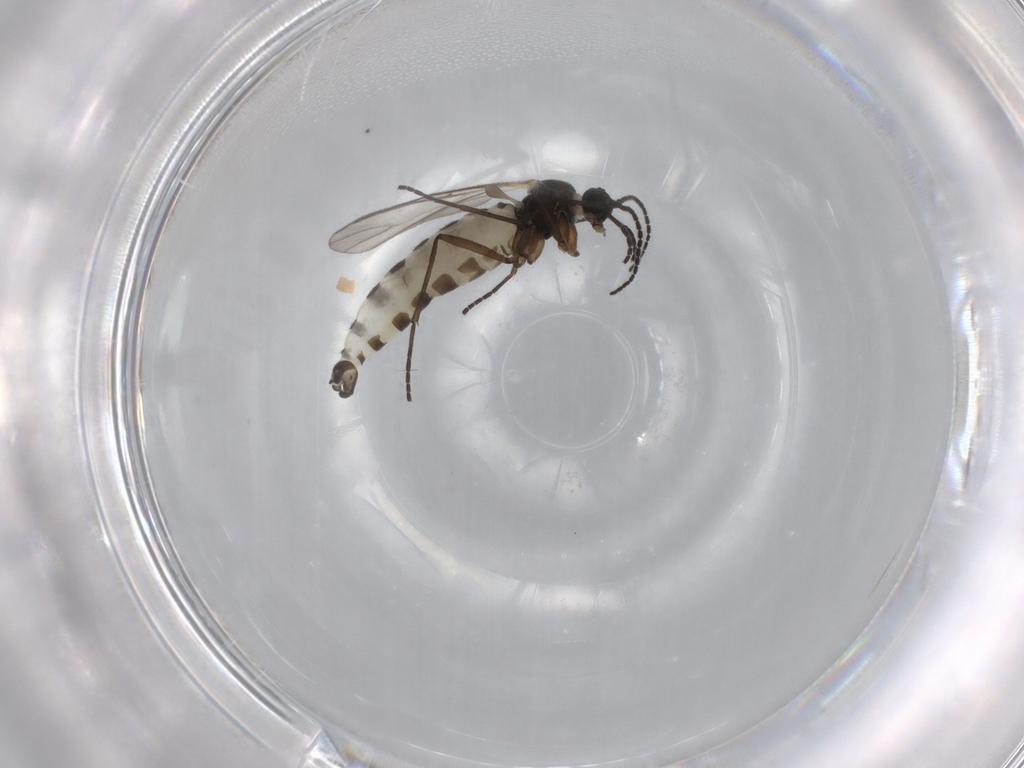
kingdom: Animalia
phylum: Arthropoda
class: Insecta
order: Diptera
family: Sciaridae
